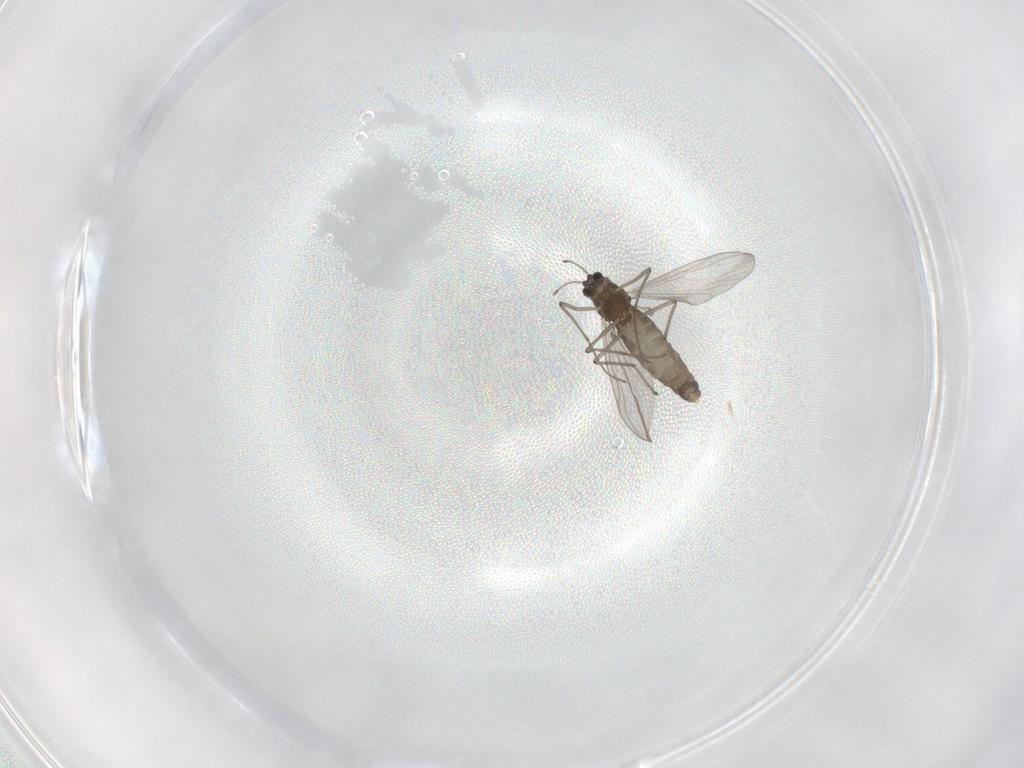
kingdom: Animalia
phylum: Arthropoda
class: Insecta
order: Diptera
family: Chironomidae
